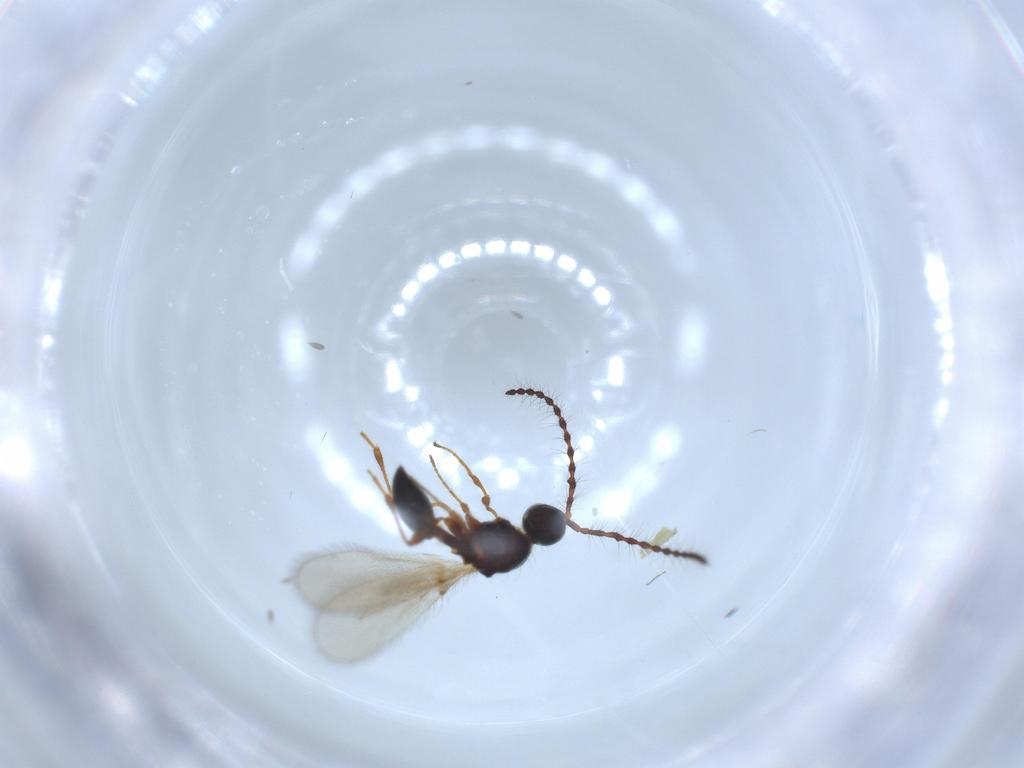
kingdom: Animalia
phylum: Arthropoda
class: Insecta
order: Hymenoptera
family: Diapriidae
